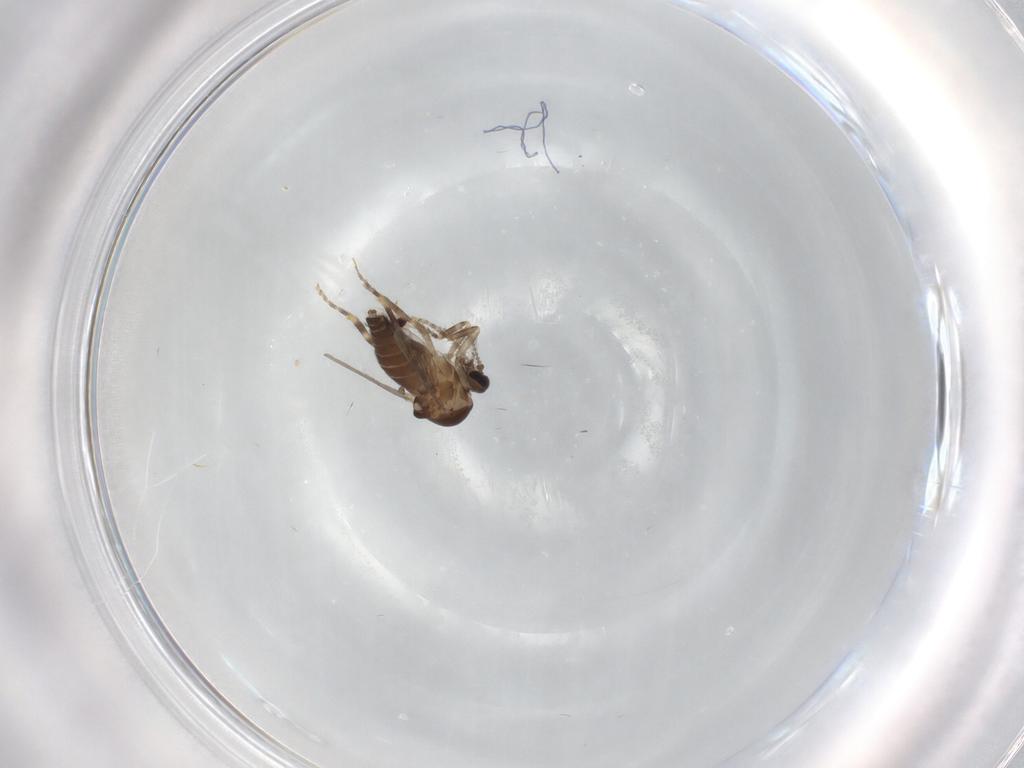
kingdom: Animalia
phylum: Arthropoda
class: Insecta
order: Diptera
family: Ceratopogonidae
